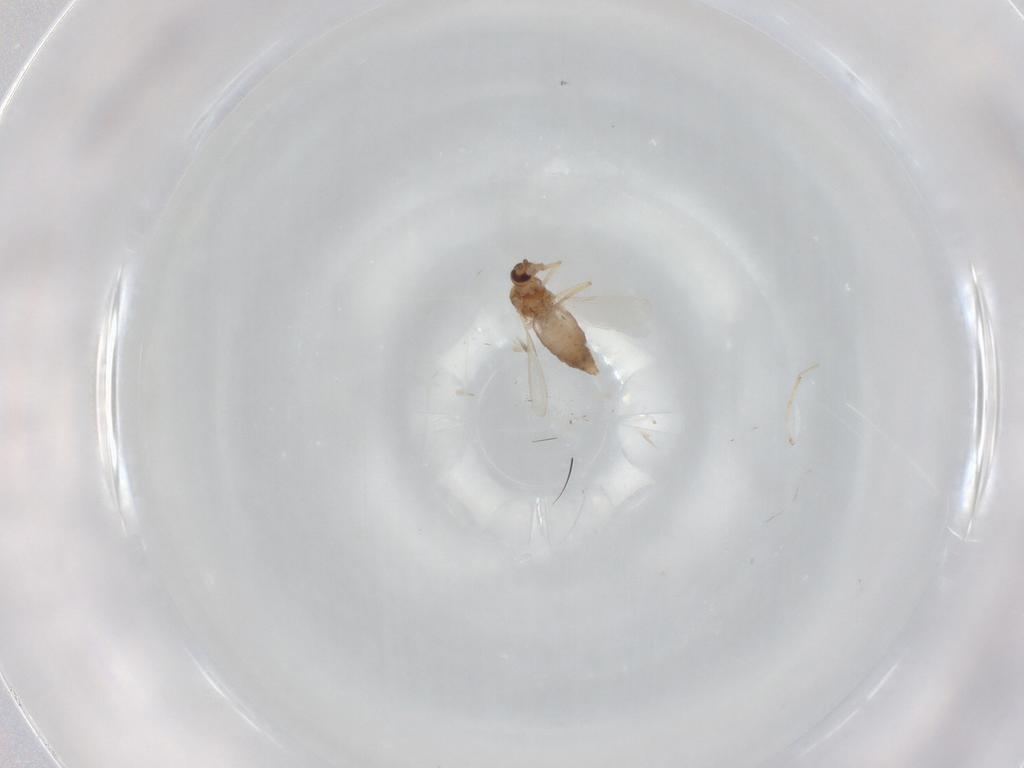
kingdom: Animalia
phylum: Arthropoda
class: Insecta
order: Diptera
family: Ceratopogonidae
